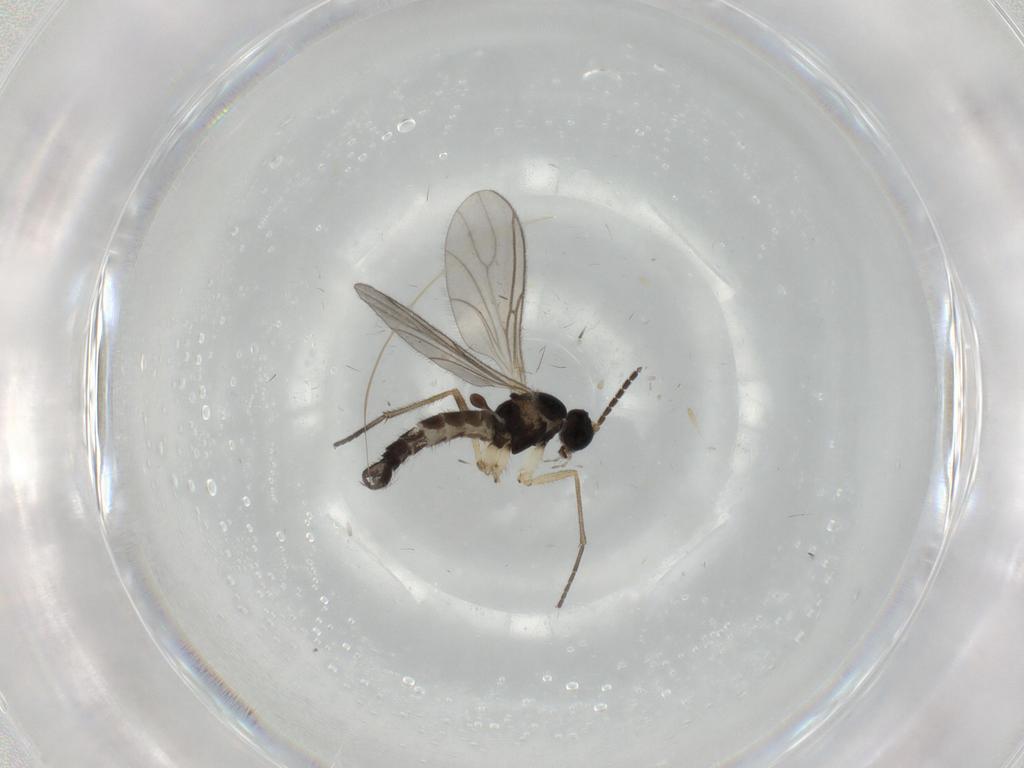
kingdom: Animalia
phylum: Arthropoda
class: Insecta
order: Diptera
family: Sciaridae
